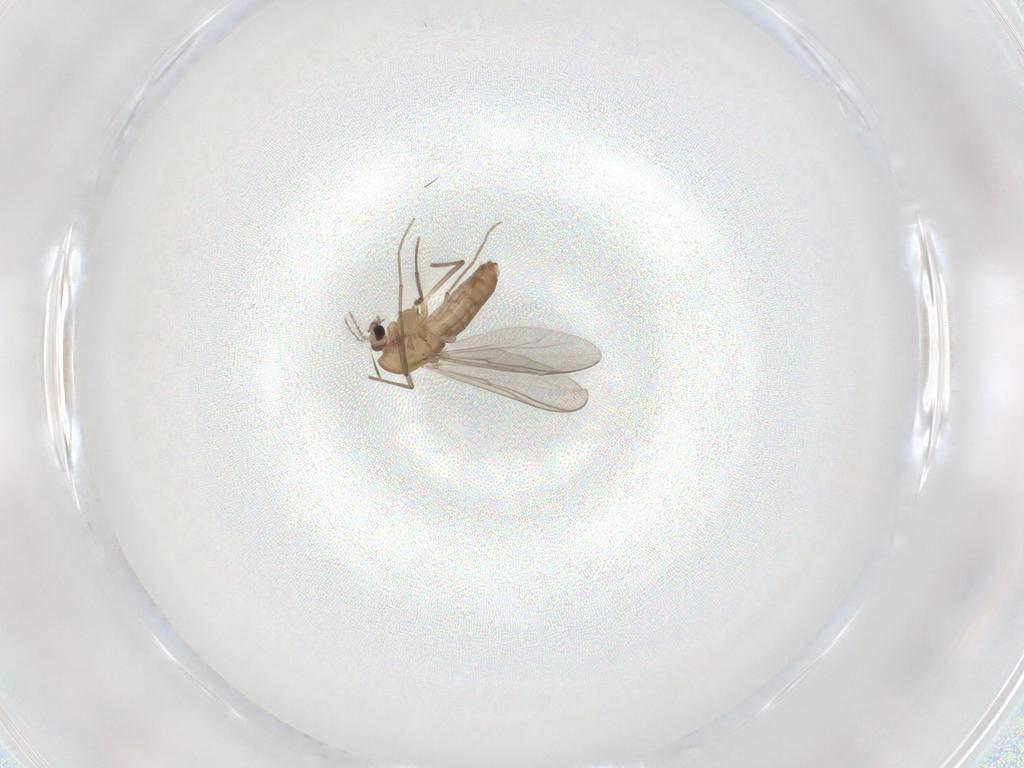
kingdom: Animalia
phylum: Arthropoda
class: Insecta
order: Diptera
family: Chironomidae
